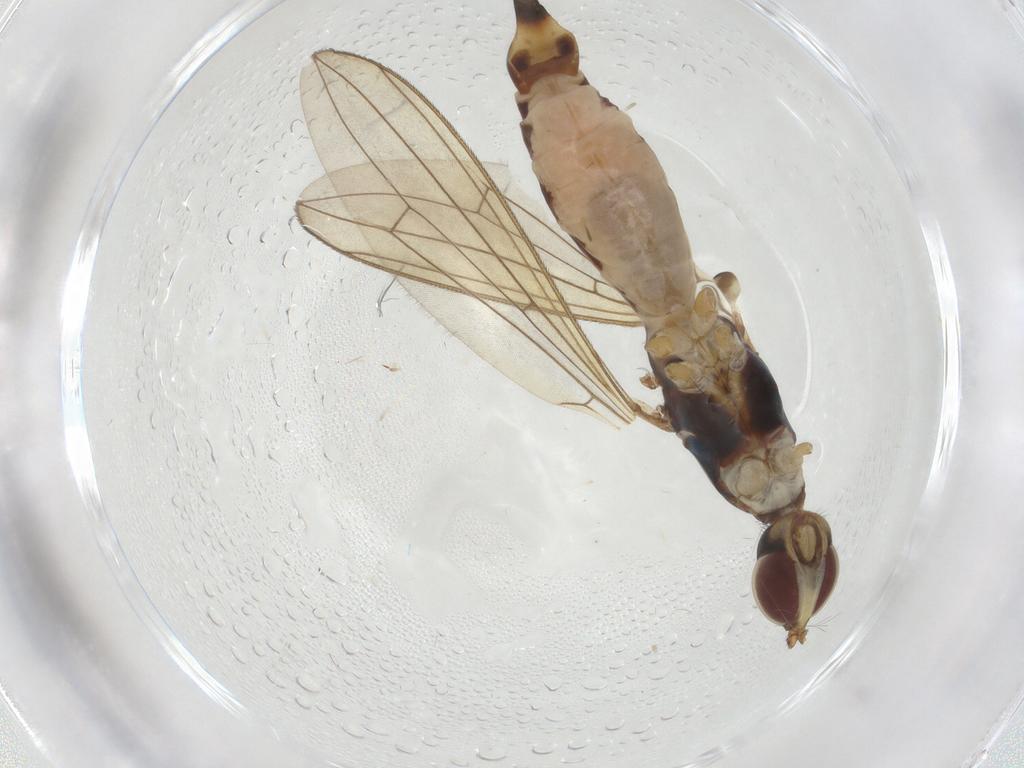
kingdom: Animalia
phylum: Arthropoda
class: Insecta
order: Diptera
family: Micropezidae
